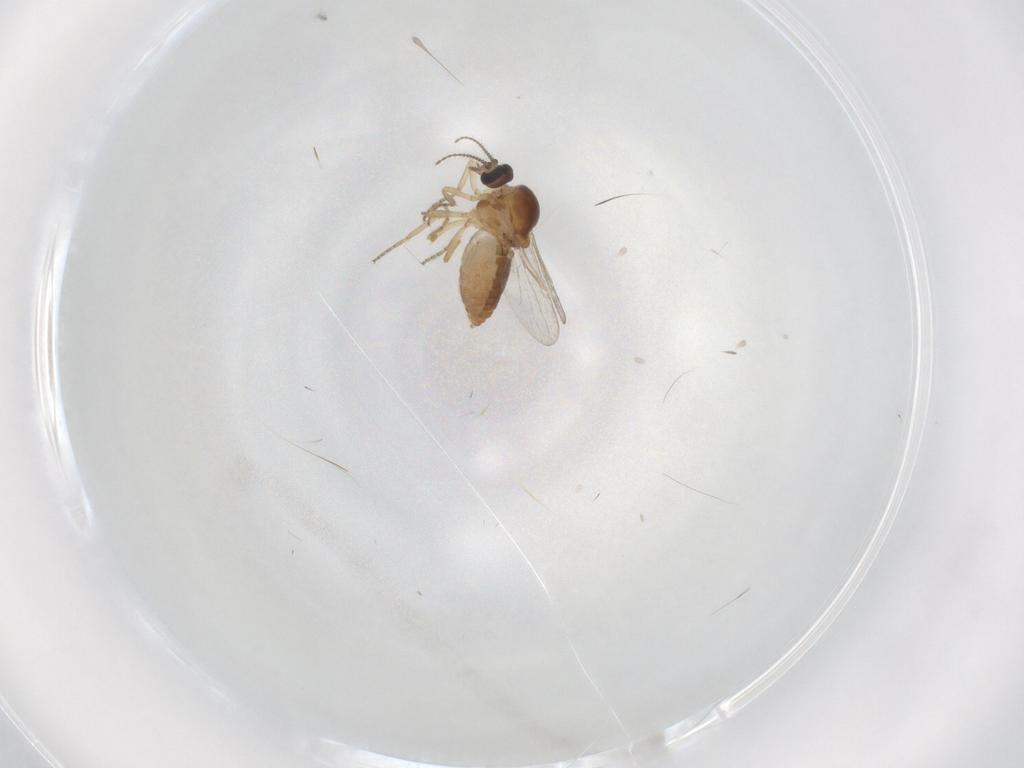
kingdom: Animalia
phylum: Arthropoda
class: Insecta
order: Diptera
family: Ceratopogonidae
